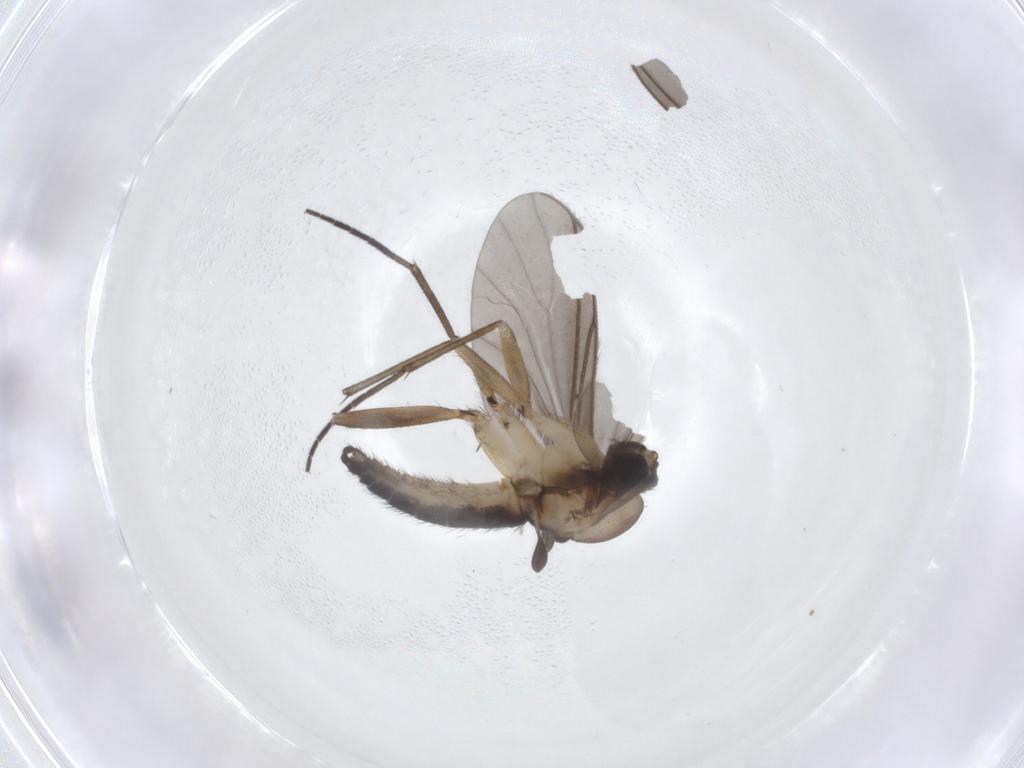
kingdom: Animalia
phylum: Arthropoda
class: Insecta
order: Diptera
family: Sciaridae
